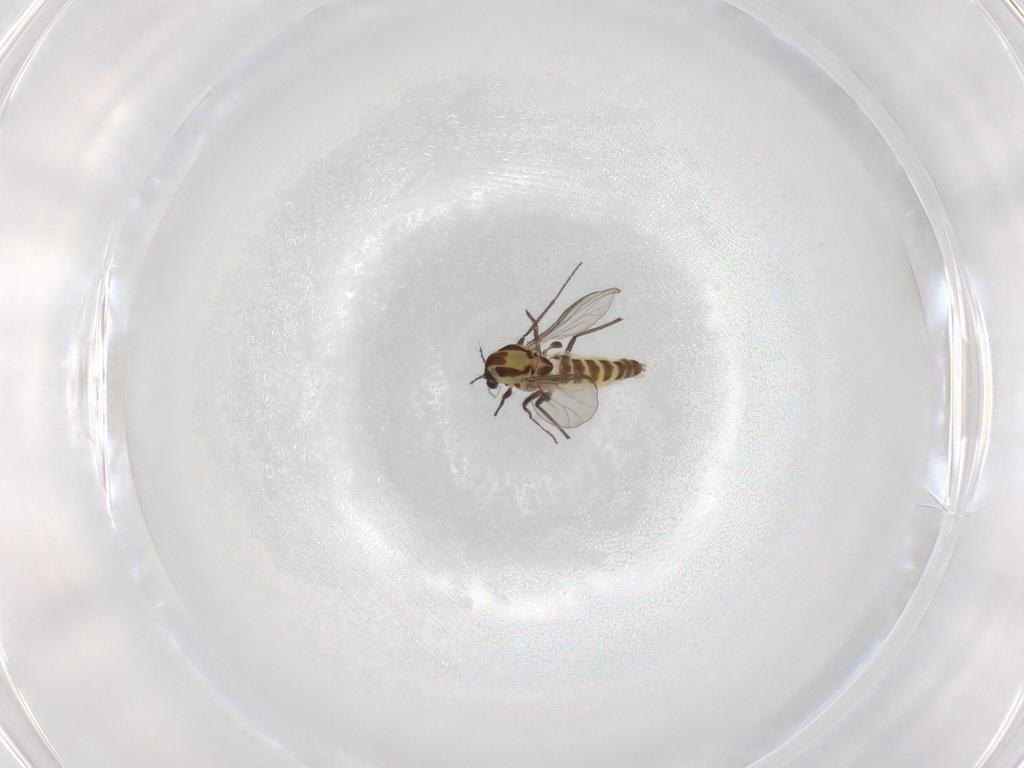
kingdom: Animalia
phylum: Arthropoda
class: Insecta
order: Diptera
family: Chironomidae
